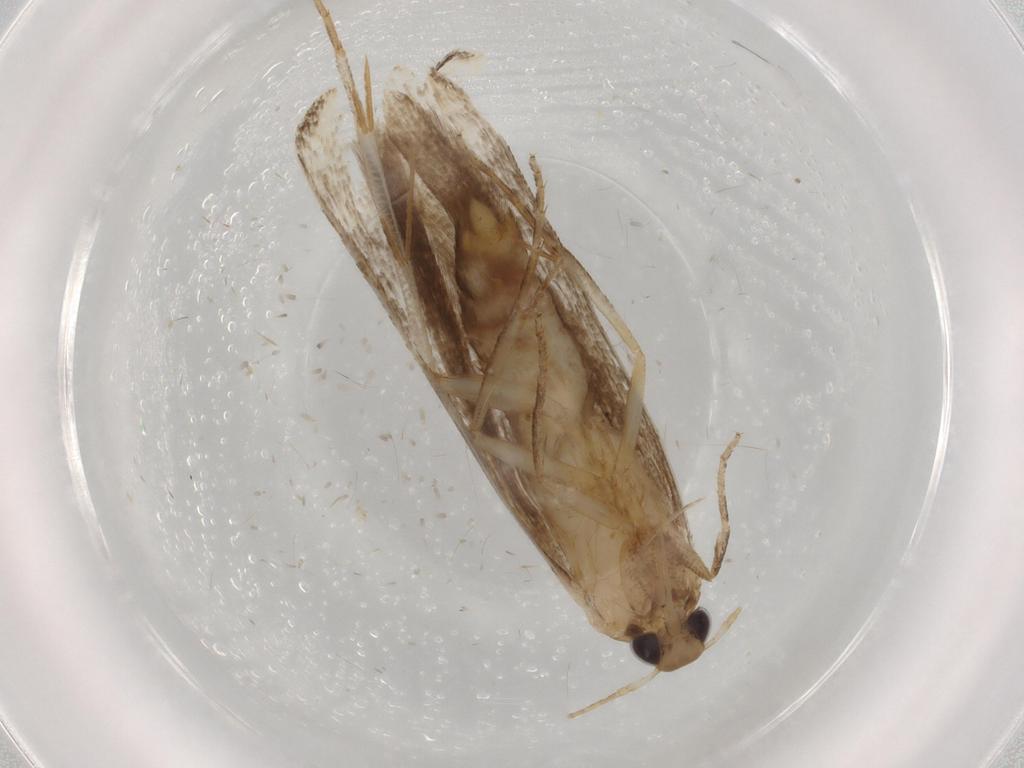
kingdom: Animalia
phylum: Arthropoda
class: Insecta
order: Lepidoptera
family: Gelechiidae
